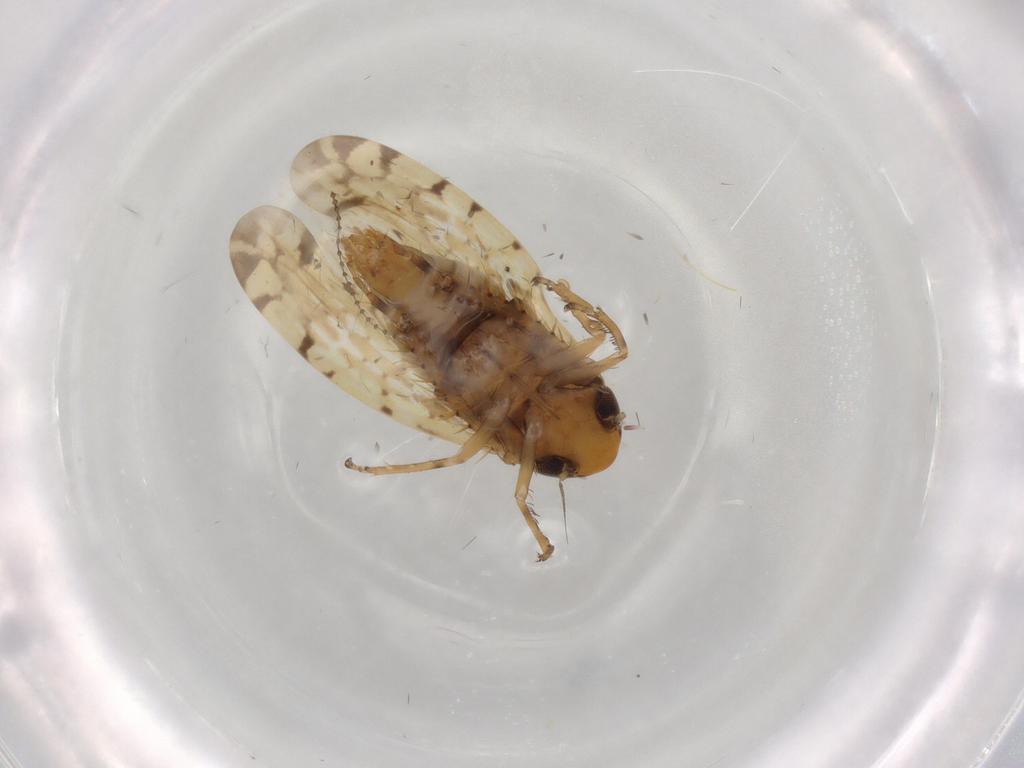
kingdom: Animalia
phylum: Arthropoda
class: Insecta
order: Hemiptera
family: Cicadellidae
